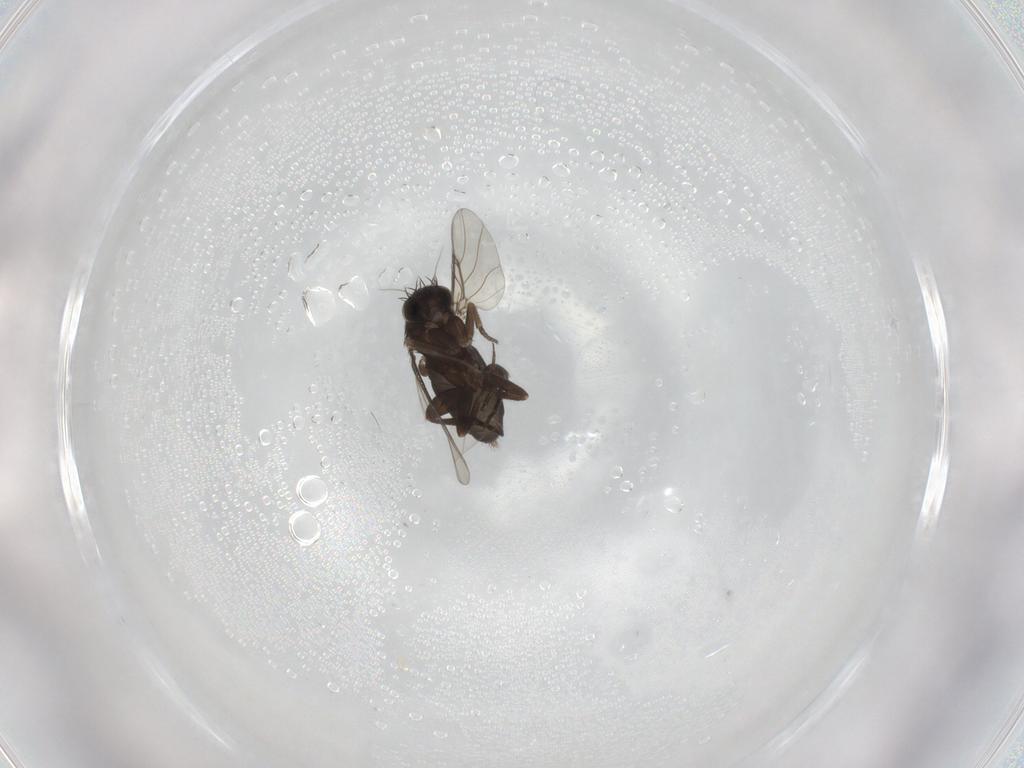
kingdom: Animalia
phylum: Arthropoda
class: Insecta
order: Diptera
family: Phoridae
